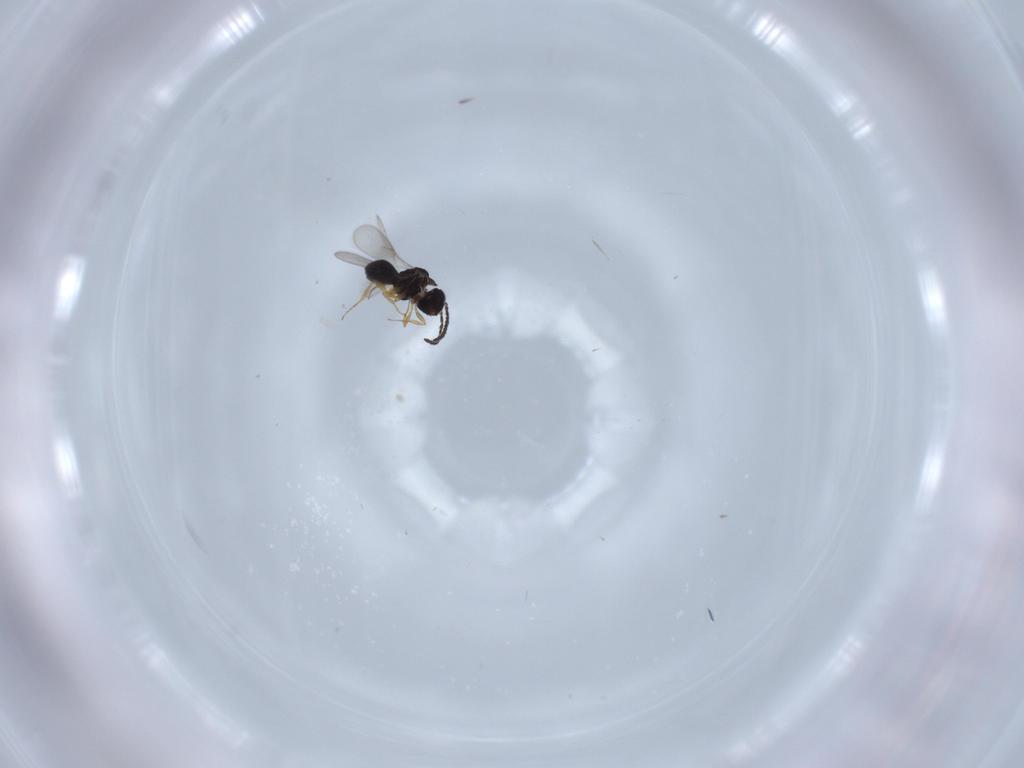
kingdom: Animalia
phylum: Arthropoda
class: Insecta
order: Hymenoptera
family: Scelionidae
